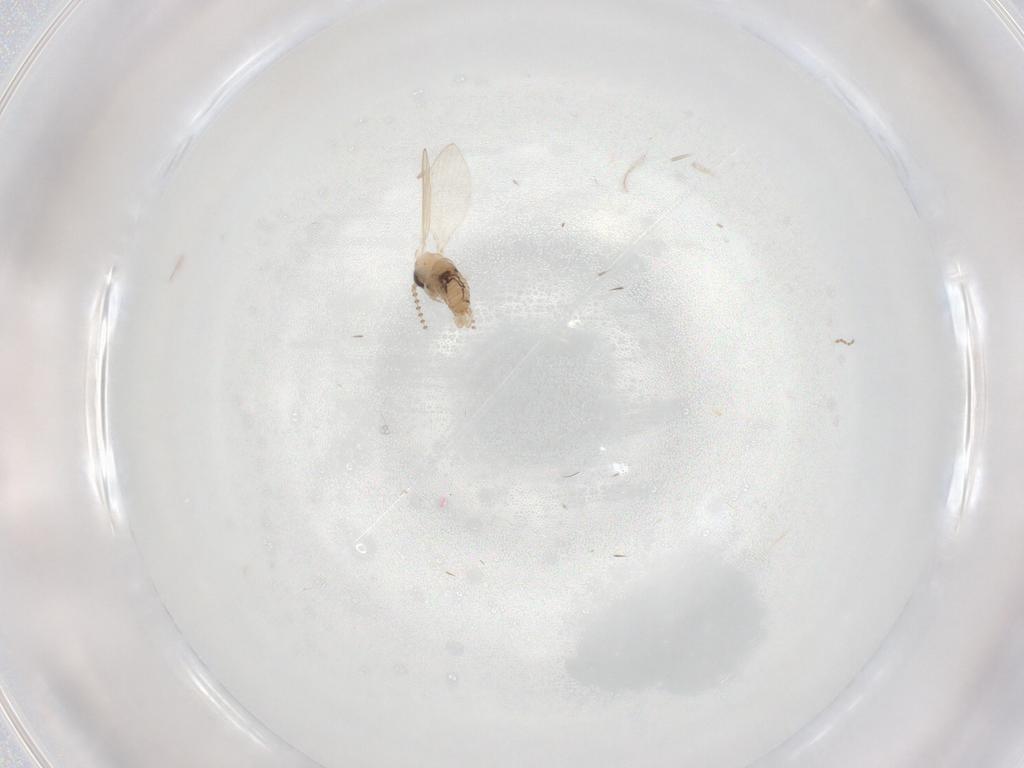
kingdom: Animalia
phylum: Arthropoda
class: Insecta
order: Diptera
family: Psychodidae
